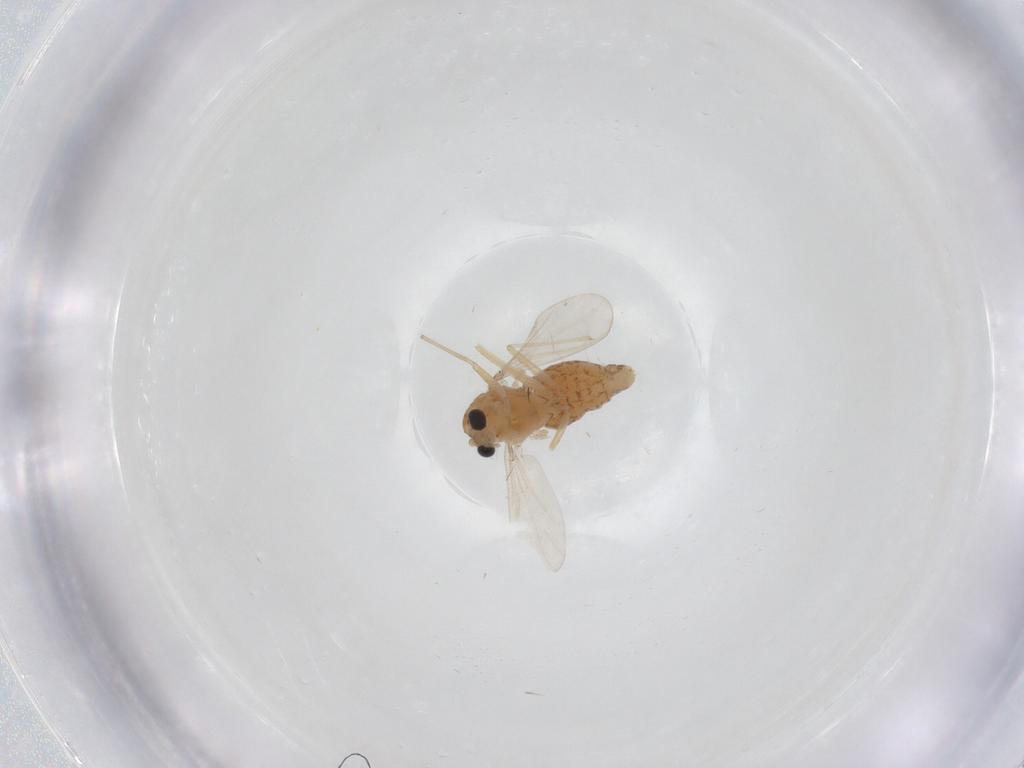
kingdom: Animalia
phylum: Arthropoda
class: Insecta
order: Diptera
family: Chironomidae
